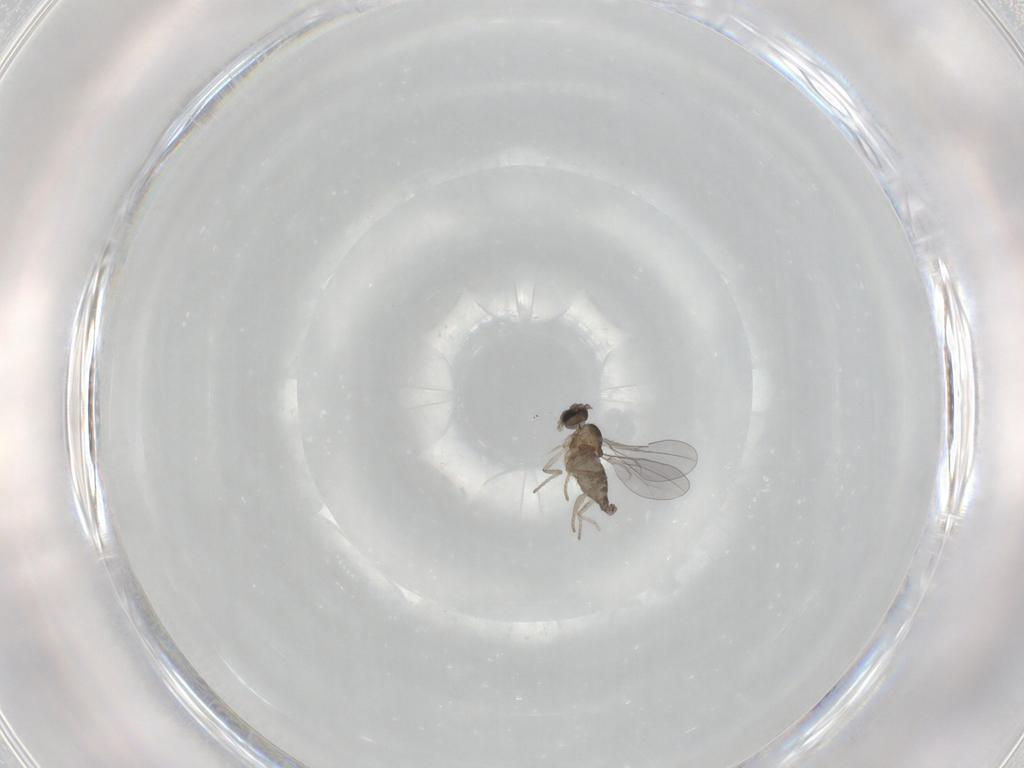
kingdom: Animalia
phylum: Arthropoda
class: Insecta
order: Diptera
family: Cecidomyiidae
